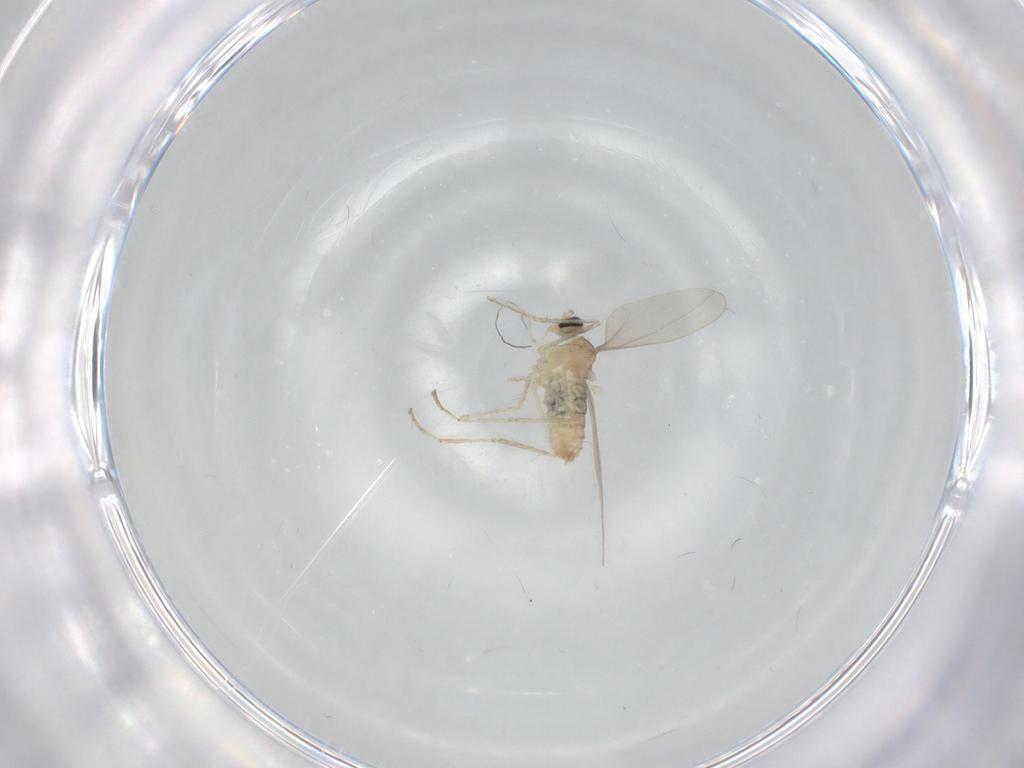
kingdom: Animalia
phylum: Arthropoda
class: Insecta
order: Diptera
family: Cecidomyiidae
